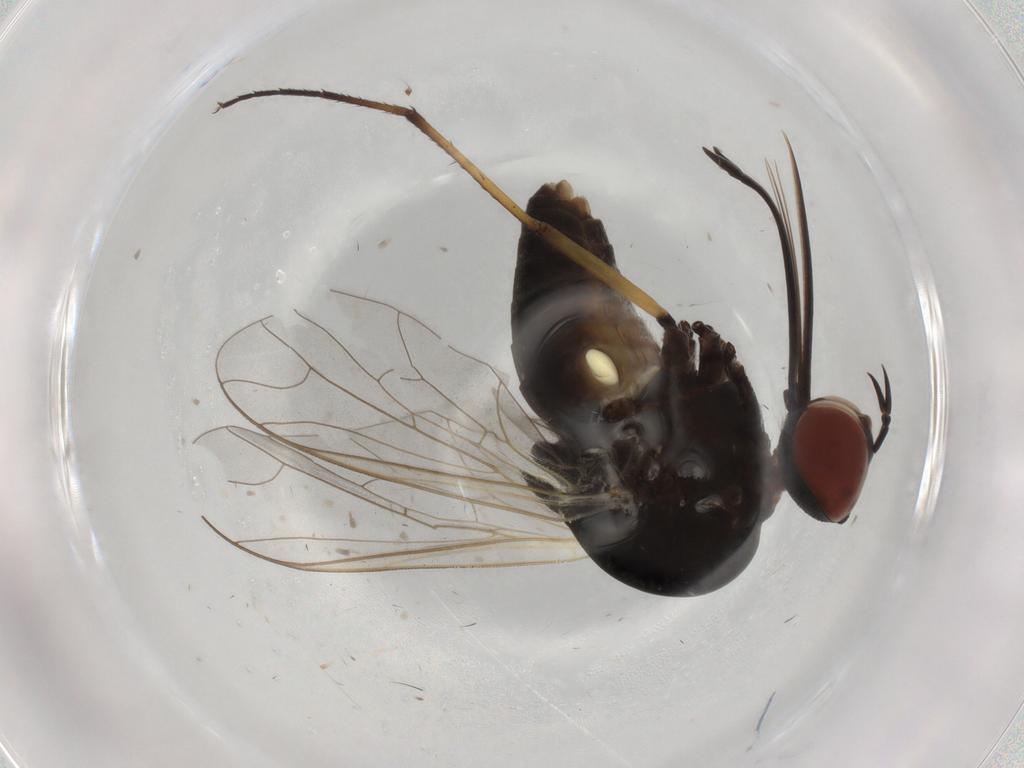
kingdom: Animalia
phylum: Arthropoda
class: Insecta
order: Diptera
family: Bombyliidae
